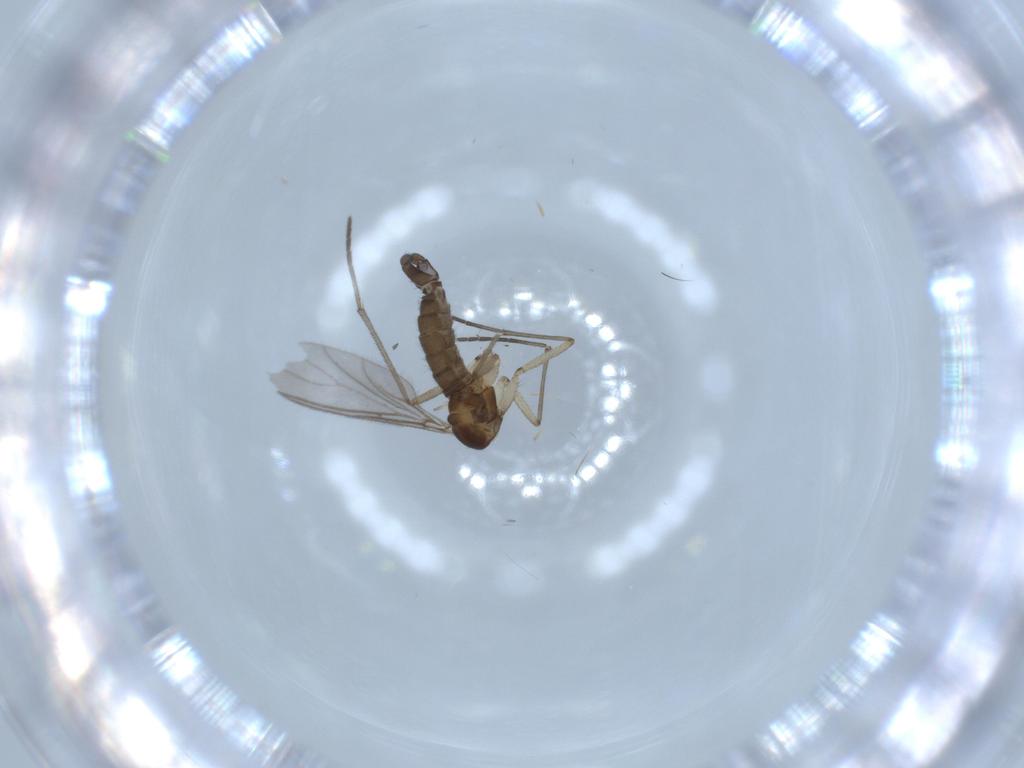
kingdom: Animalia
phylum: Arthropoda
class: Insecta
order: Diptera
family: Sciaridae
